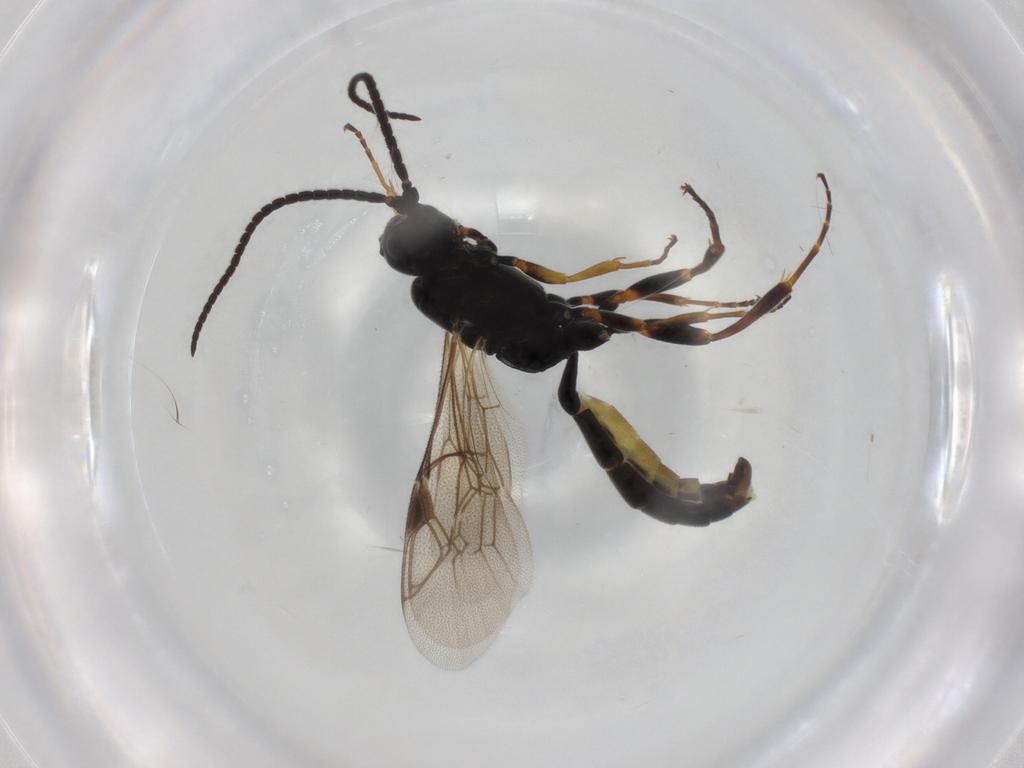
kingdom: Animalia
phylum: Arthropoda
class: Insecta
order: Hymenoptera
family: Ichneumonidae
